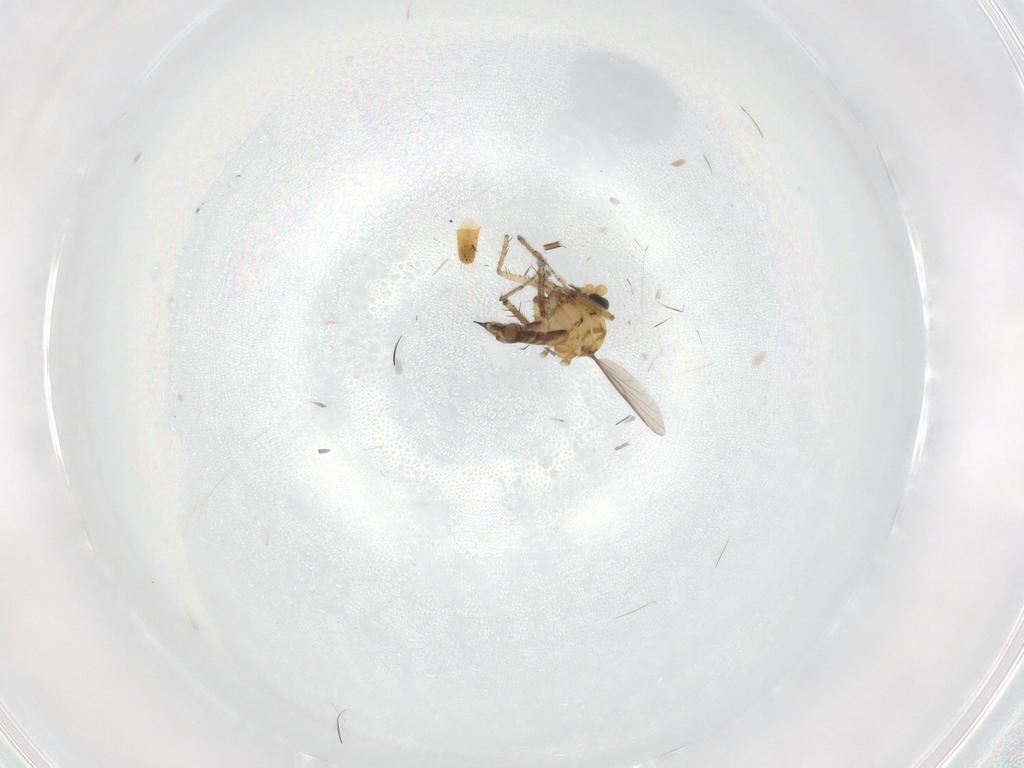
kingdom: Animalia
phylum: Arthropoda
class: Insecta
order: Diptera
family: Ceratopogonidae
